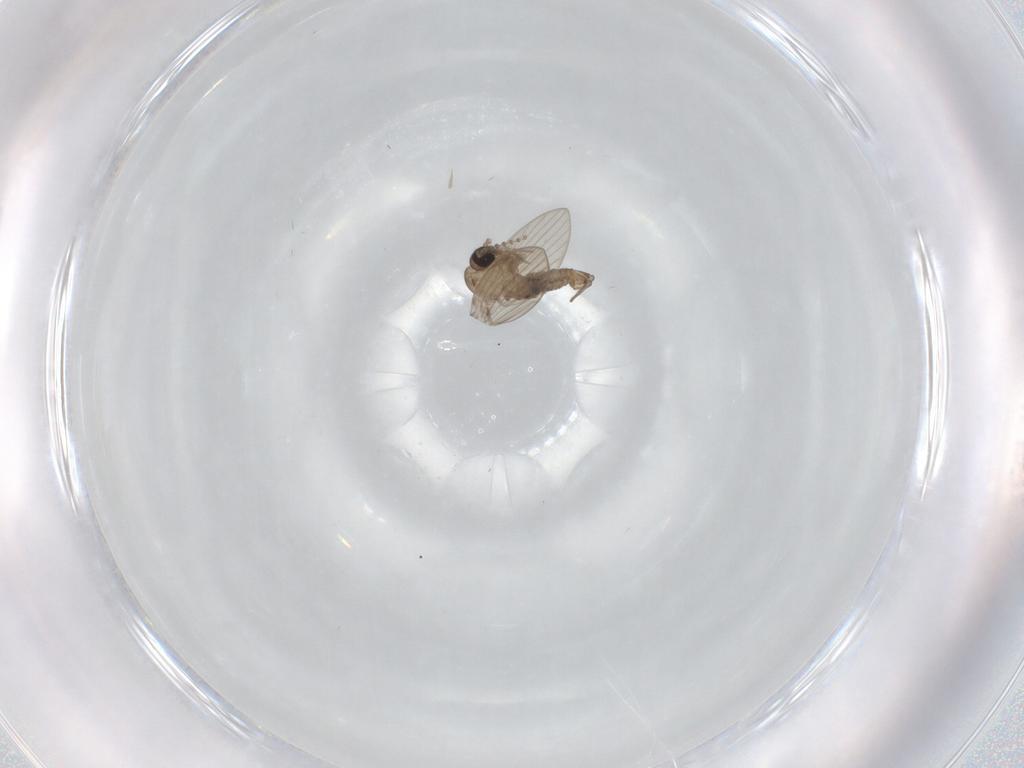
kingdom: Animalia
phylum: Arthropoda
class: Insecta
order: Diptera
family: Psychodidae
